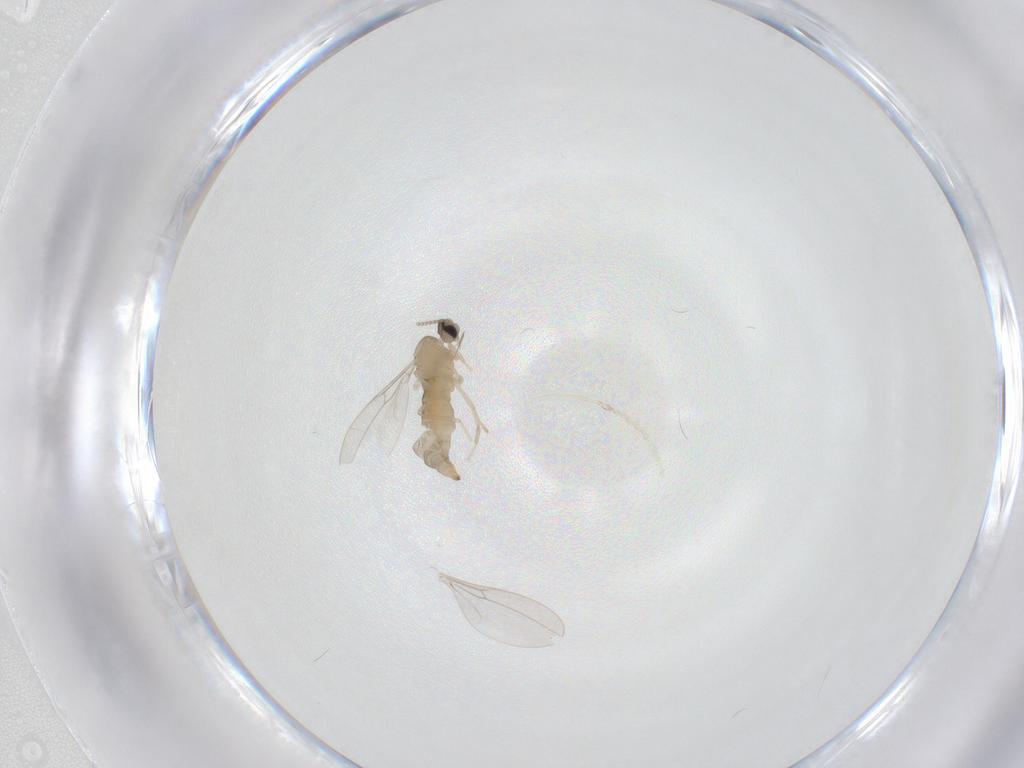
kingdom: Animalia
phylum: Arthropoda
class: Insecta
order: Diptera
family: Cecidomyiidae
